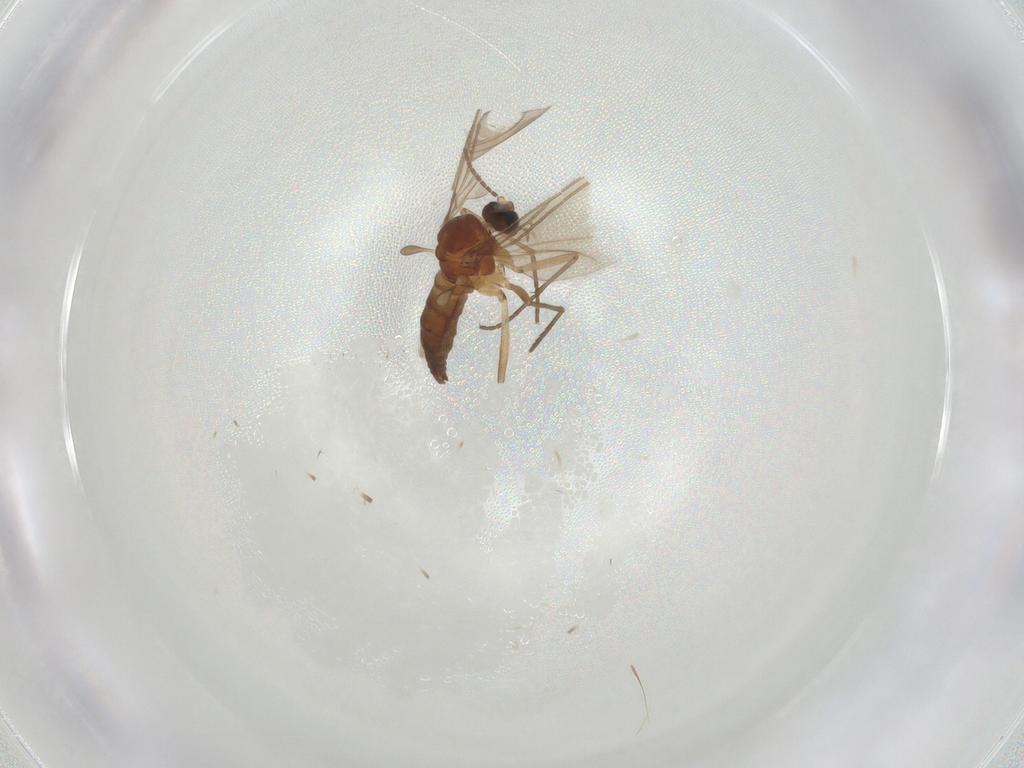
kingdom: Animalia
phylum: Arthropoda
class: Insecta
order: Diptera
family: Sciaridae
